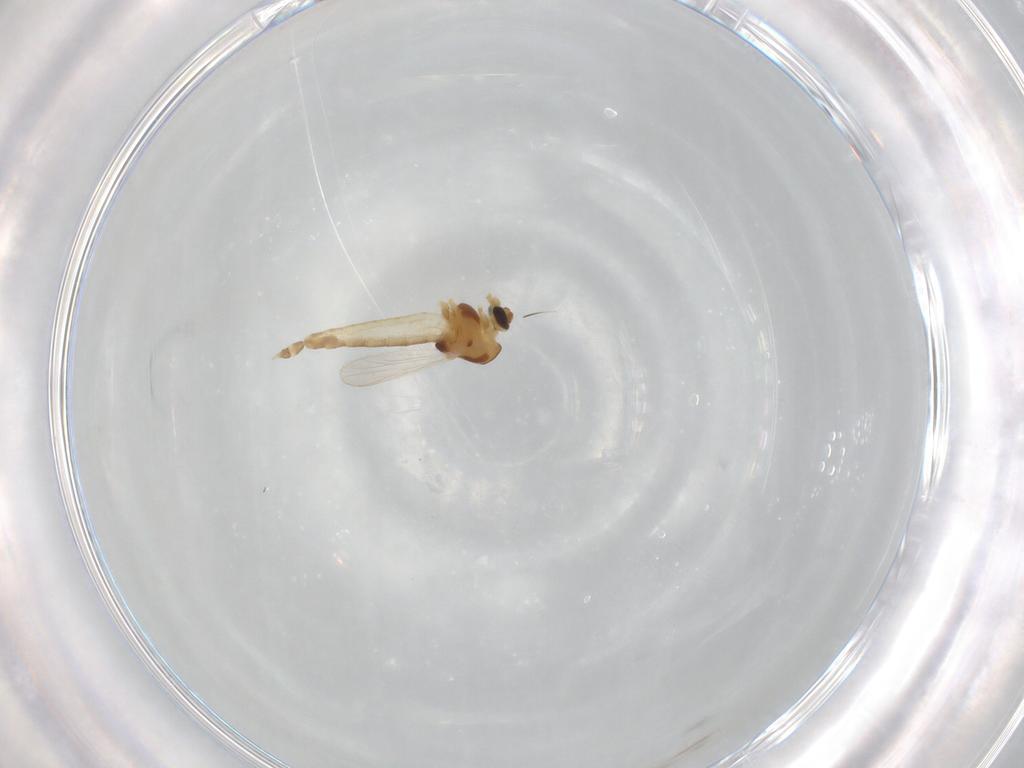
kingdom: Animalia
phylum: Arthropoda
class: Insecta
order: Diptera
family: Chironomidae
